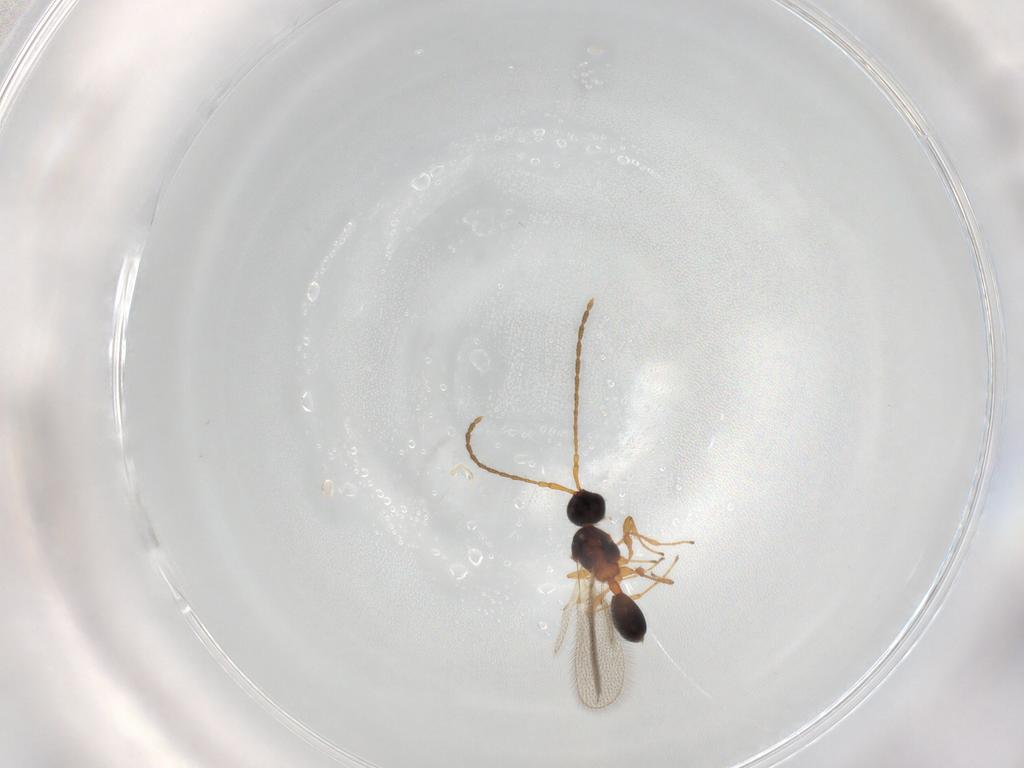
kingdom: Animalia
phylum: Arthropoda
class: Insecta
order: Hymenoptera
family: Diapriidae
